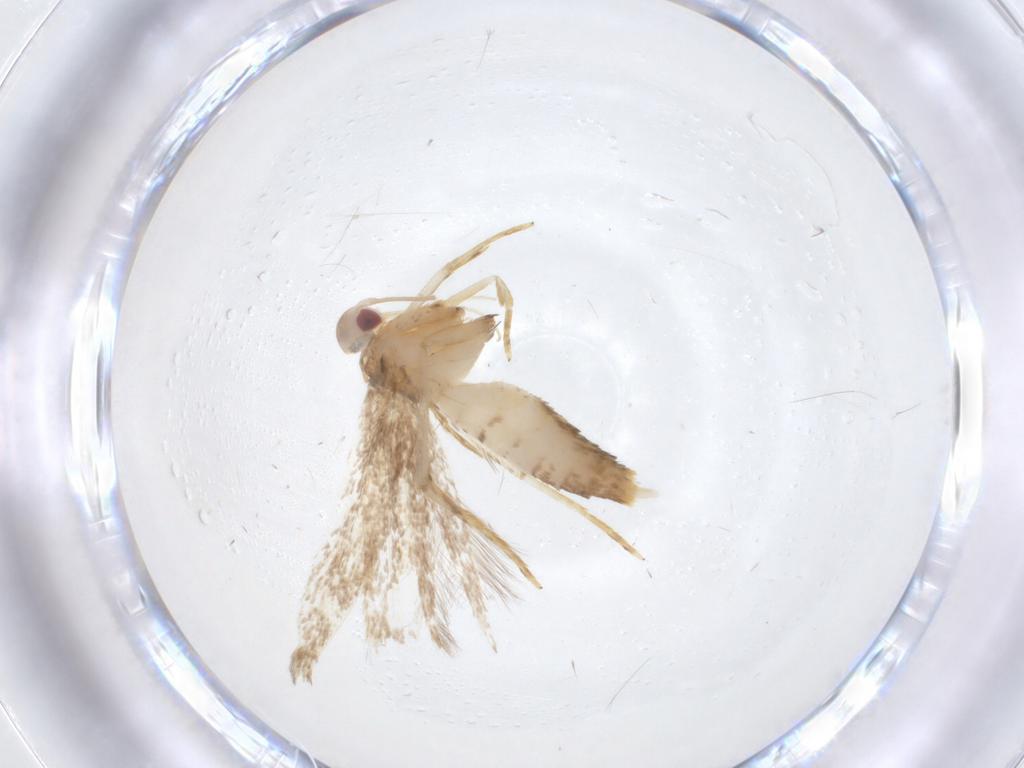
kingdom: Animalia
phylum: Arthropoda
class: Insecta
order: Lepidoptera
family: Cosmopterigidae
